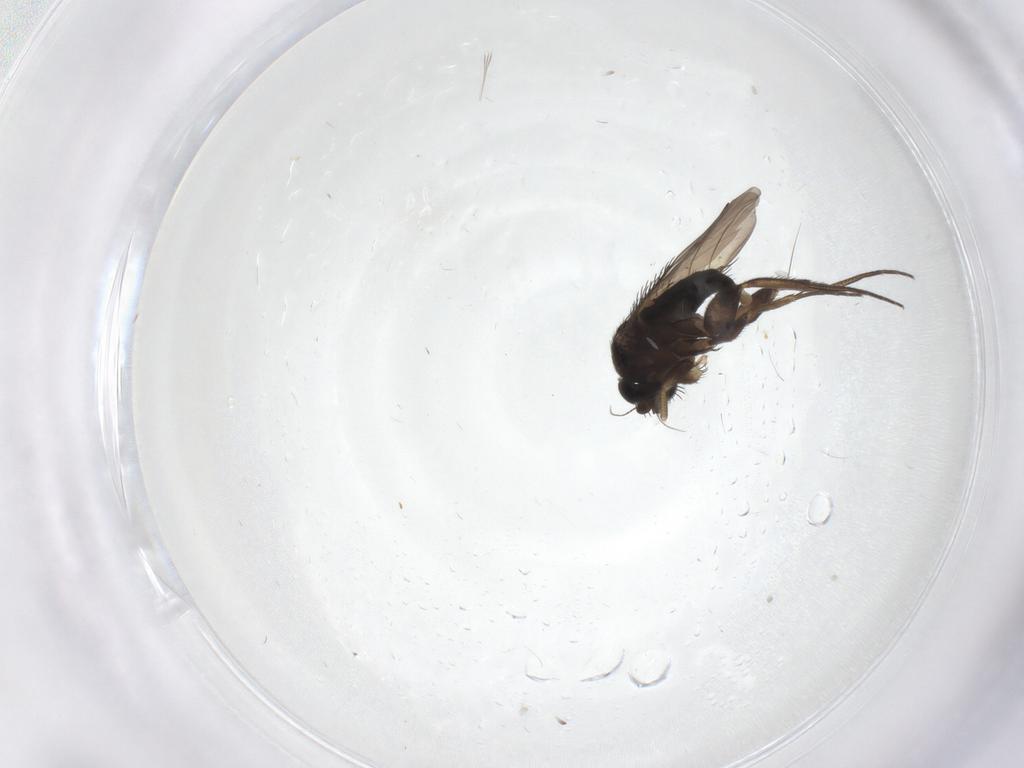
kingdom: Animalia
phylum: Arthropoda
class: Insecta
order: Diptera
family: Phoridae
